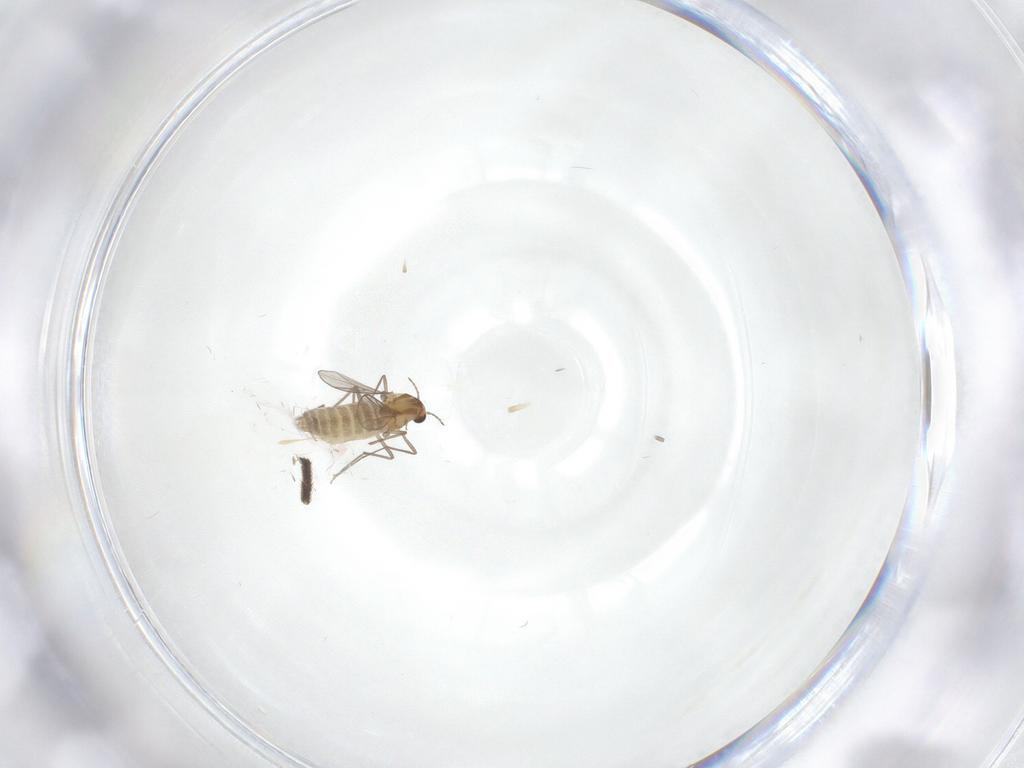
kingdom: Animalia
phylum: Arthropoda
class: Insecta
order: Diptera
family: Chironomidae
